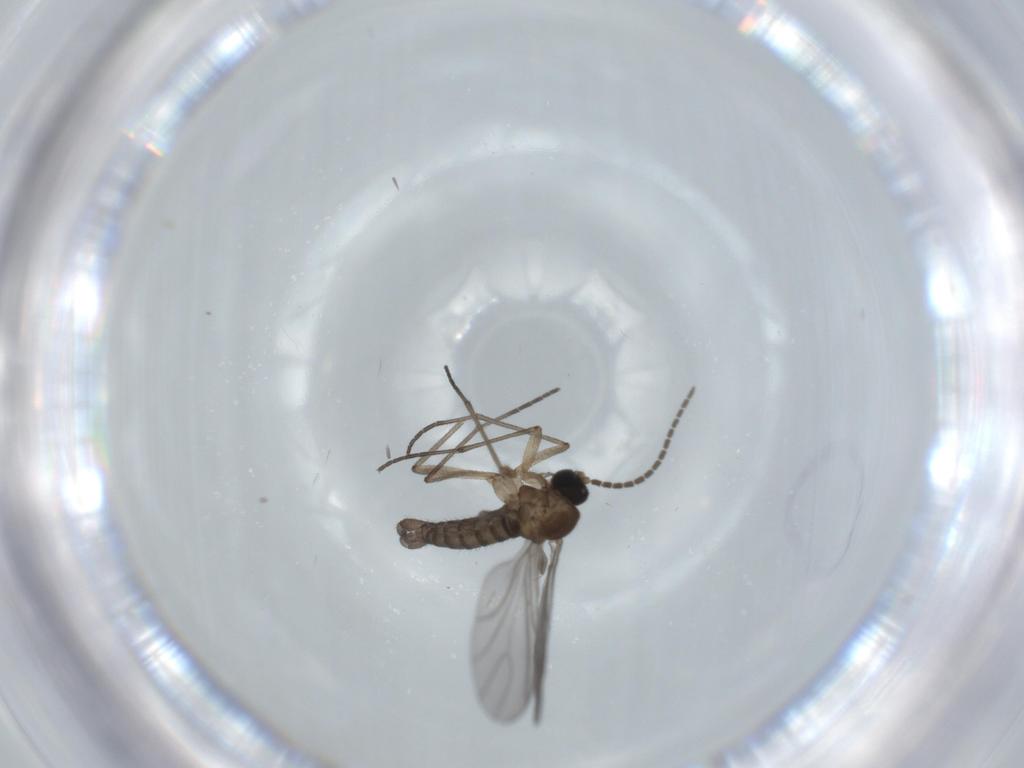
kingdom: Animalia
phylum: Arthropoda
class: Insecta
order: Diptera
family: Sciaridae
